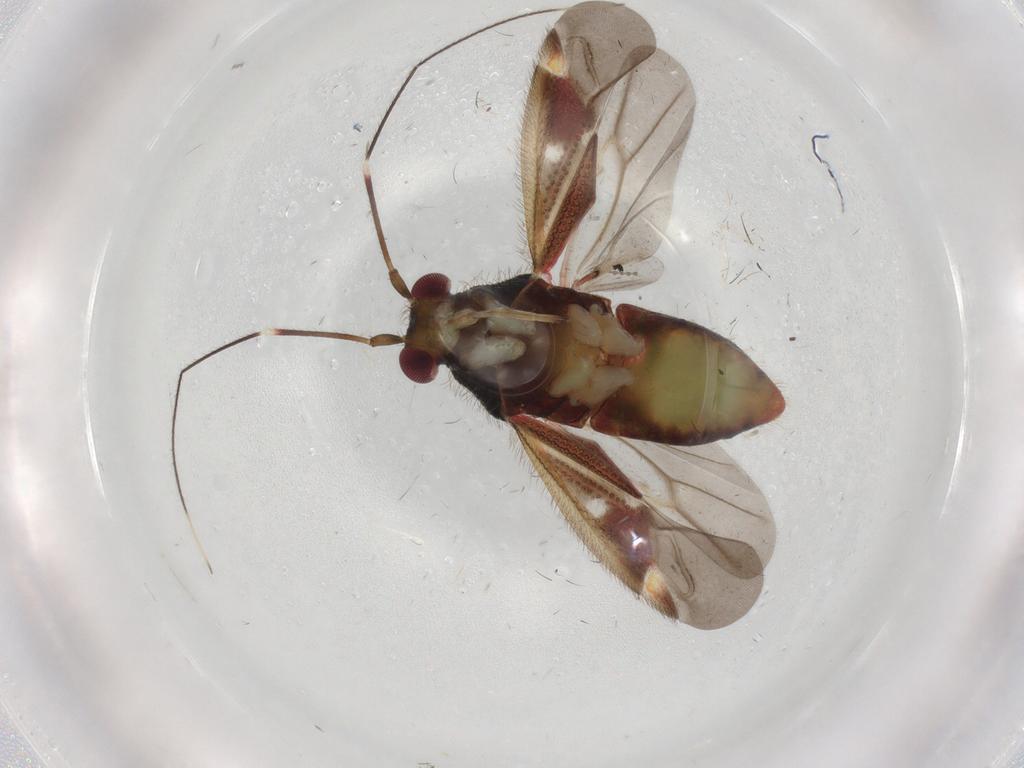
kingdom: Animalia
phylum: Arthropoda
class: Insecta
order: Hemiptera
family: Miridae
